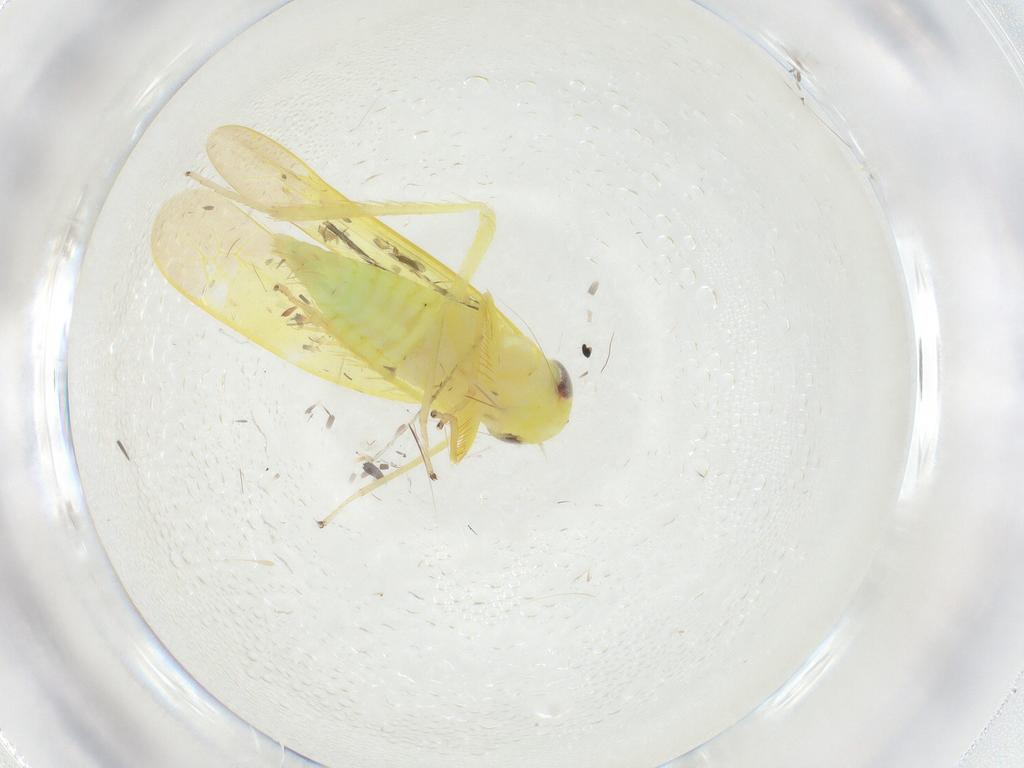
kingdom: Animalia
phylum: Arthropoda
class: Insecta
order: Hemiptera
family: Cicadellidae
